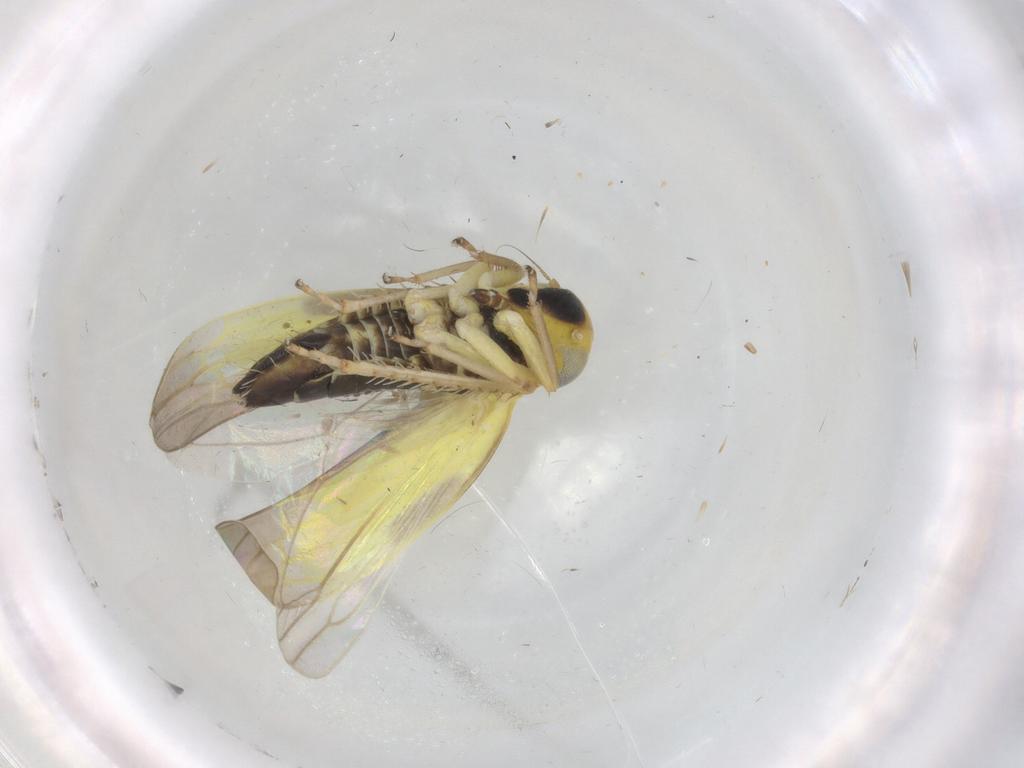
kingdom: Animalia
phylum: Arthropoda
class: Insecta
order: Hemiptera
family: Cicadellidae
